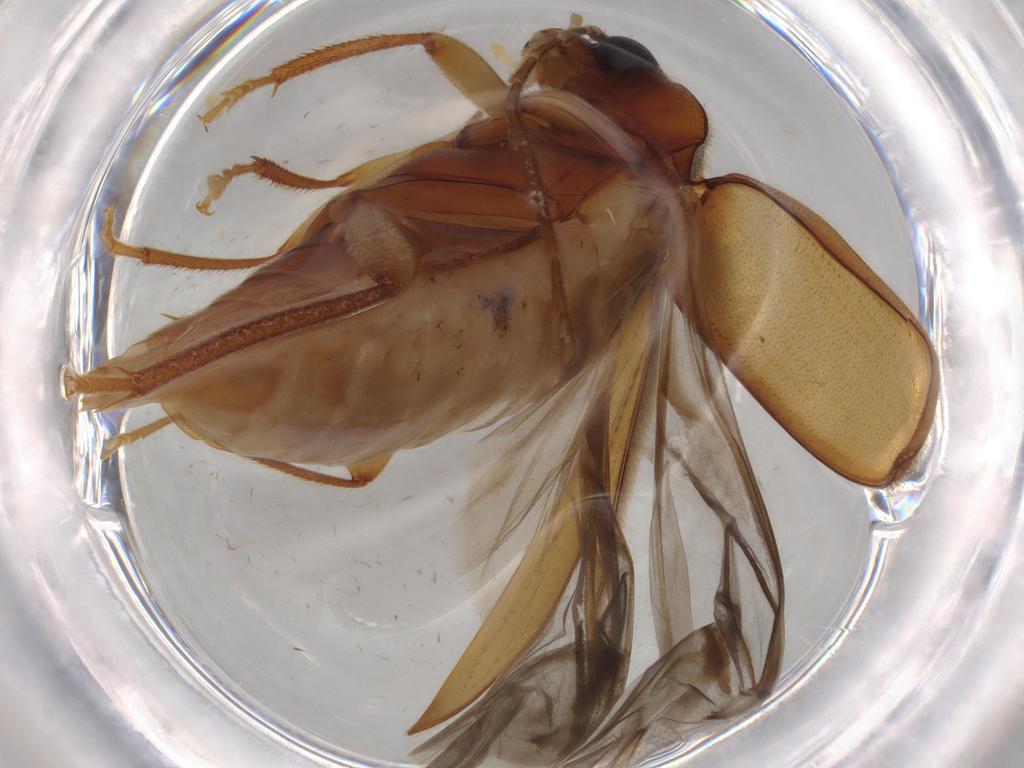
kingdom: Animalia
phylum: Arthropoda
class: Insecta
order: Coleoptera
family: Ptilodactylidae
